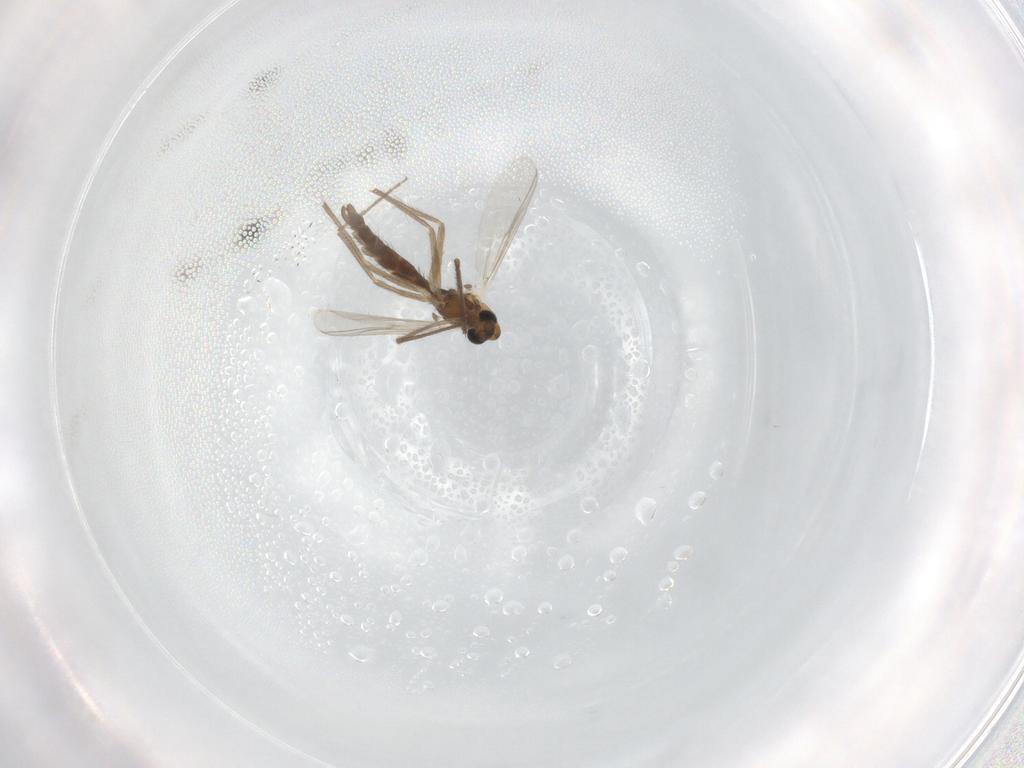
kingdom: Animalia
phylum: Arthropoda
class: Insecta
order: Diptera
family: Chironomidae
